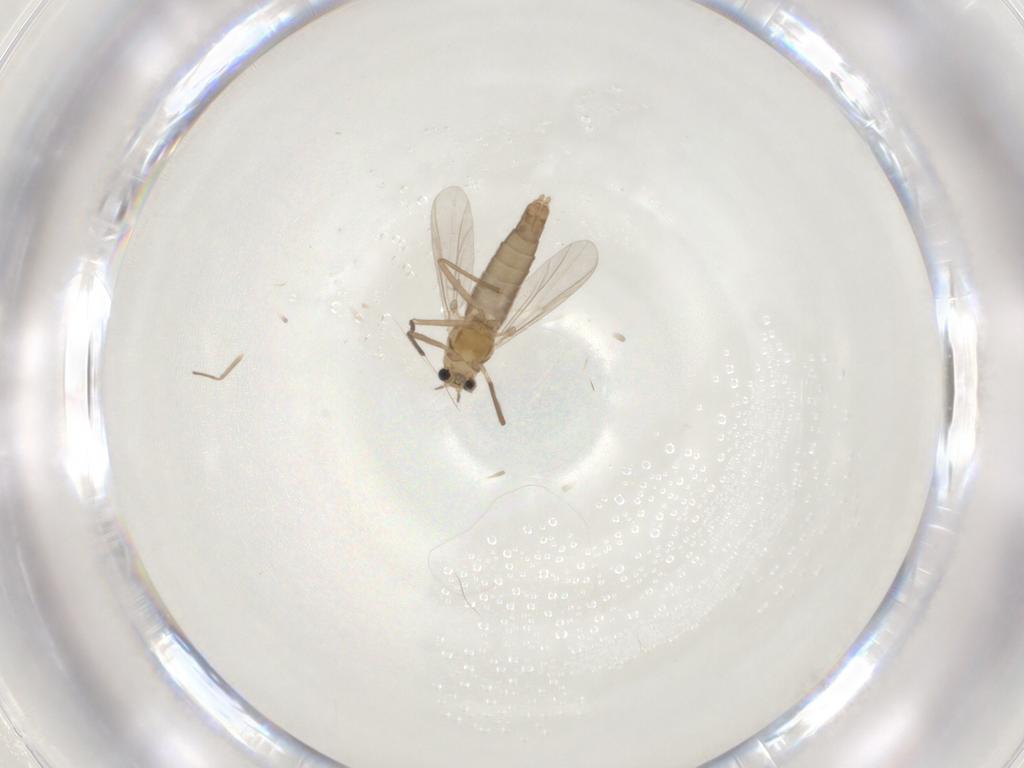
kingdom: Animalia
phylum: Arthropoda
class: Insecta
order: Diptera
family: Chironomidae
